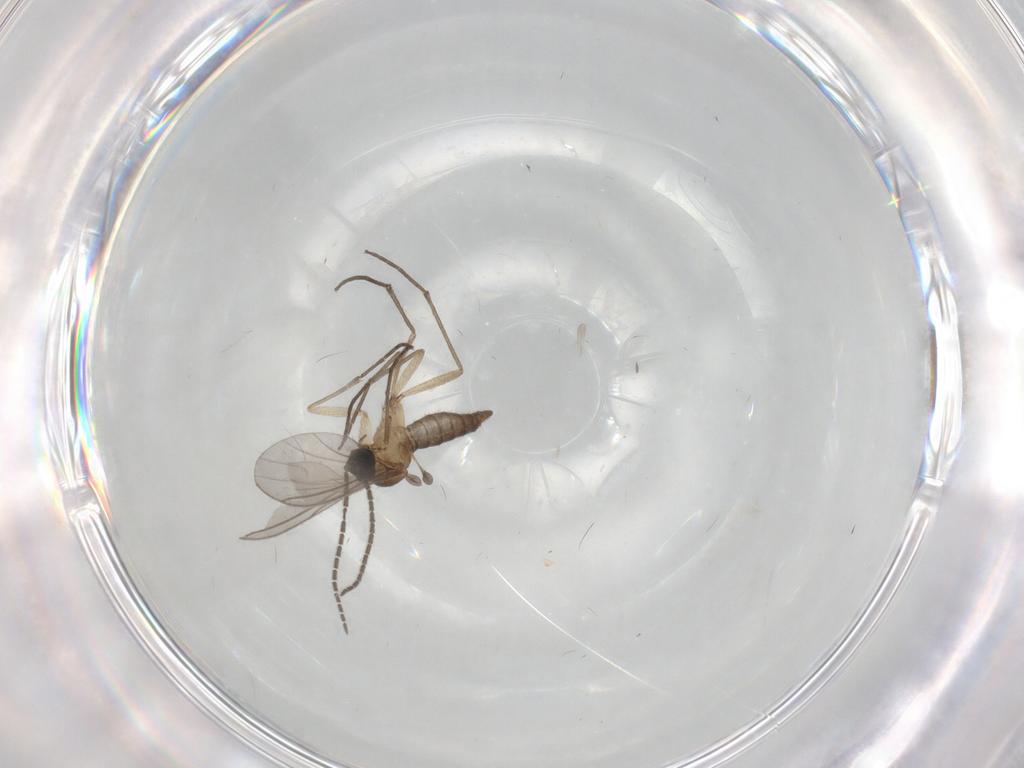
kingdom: Animalia
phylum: Arthropoda
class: Insecta
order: Diptera
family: Sciaridae
